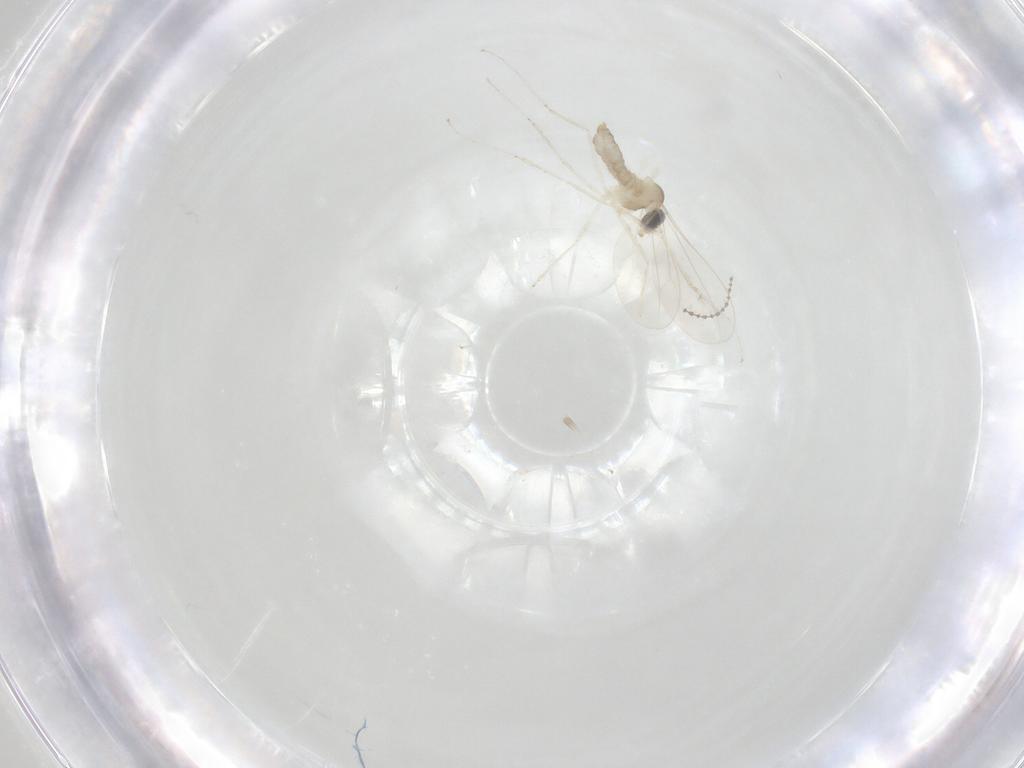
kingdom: Animalia
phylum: Arthropoda
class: Insecta
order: Diptera
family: Cecidomyiidae
